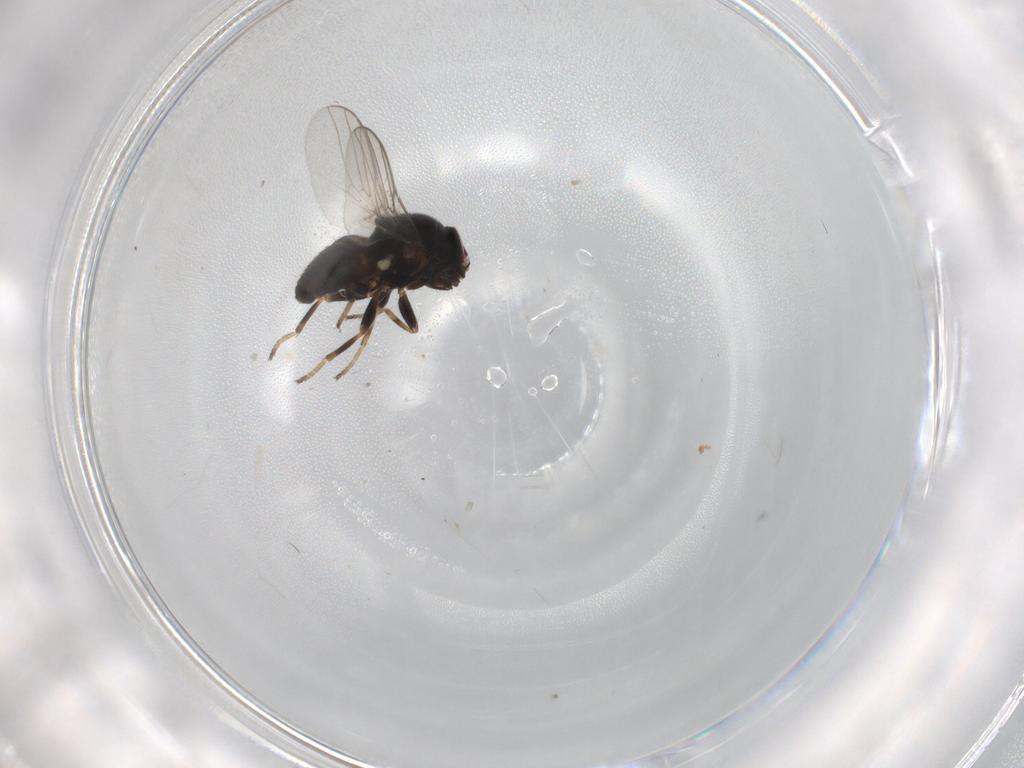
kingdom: Animalia
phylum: Arthropoda
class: Insecta
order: Diptera
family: Chloropidae
